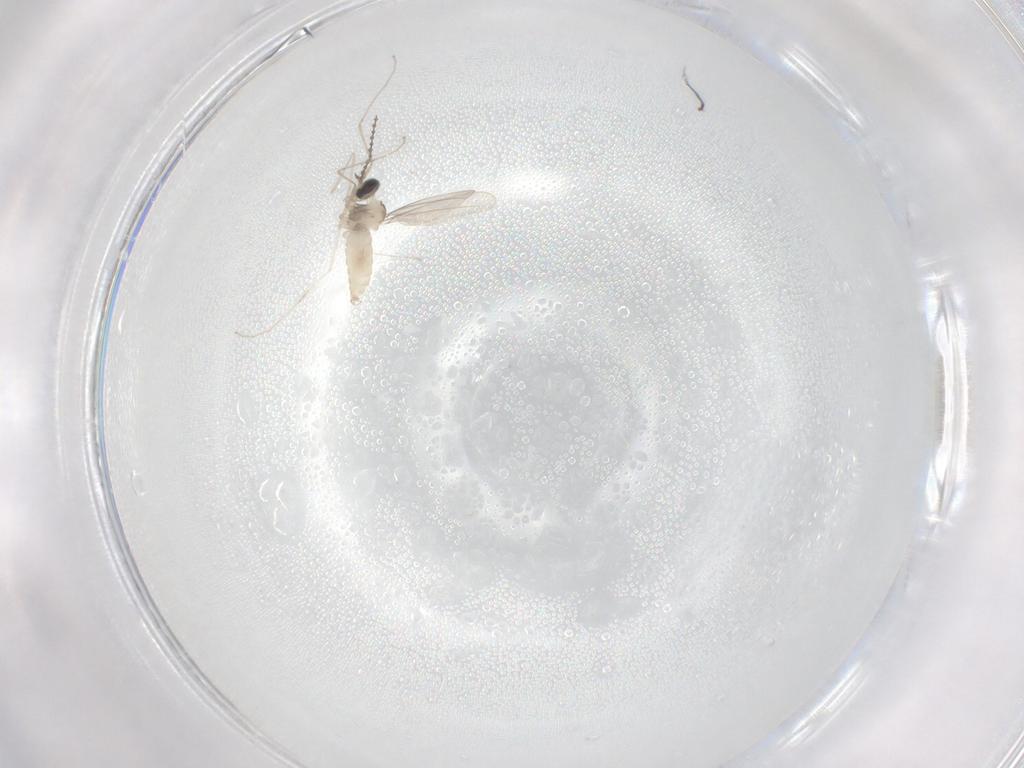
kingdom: Animalia
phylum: Arthropoda
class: Insecta
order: Diptera
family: Cecidomyiidae
